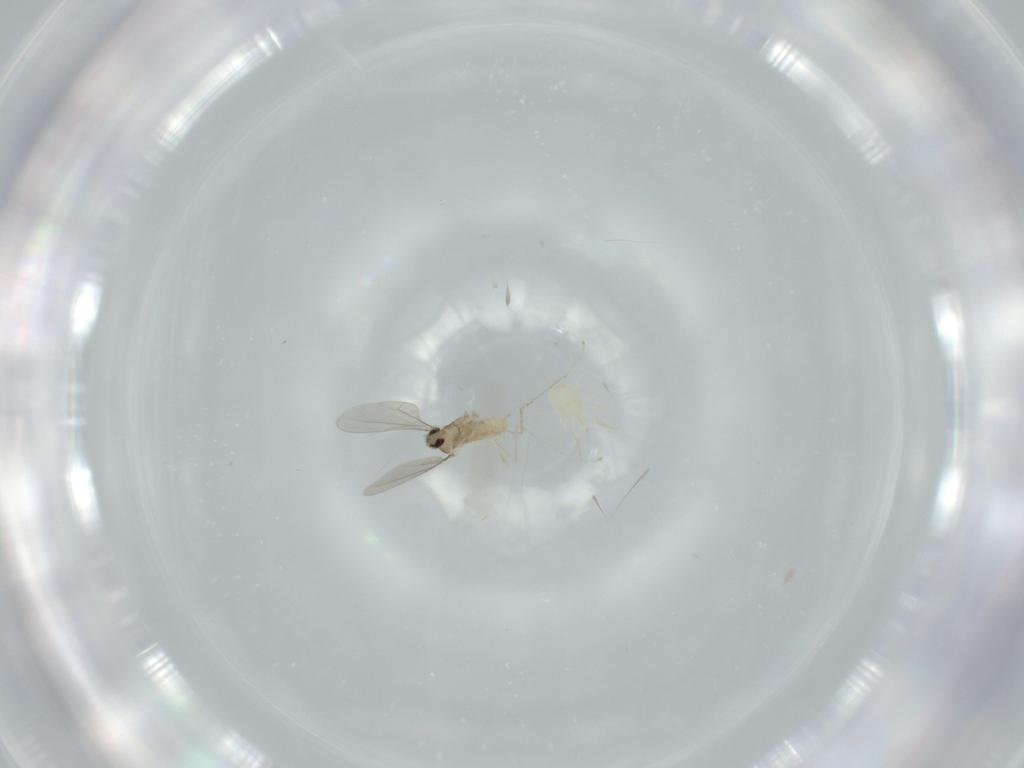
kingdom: Animalia
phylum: Arthropoda
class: Insecta
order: Diptera
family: Cecidomyiidae
